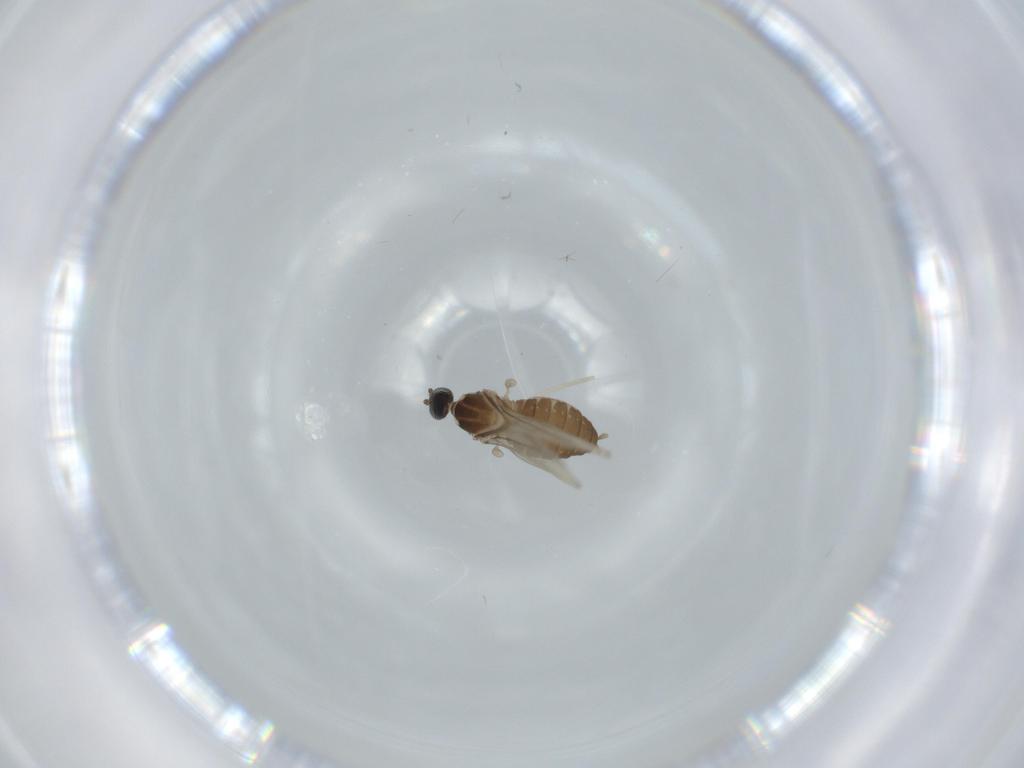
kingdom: Animalia
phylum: Arthropoda
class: Insecta
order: Diptera
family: Cecidomyiidae
